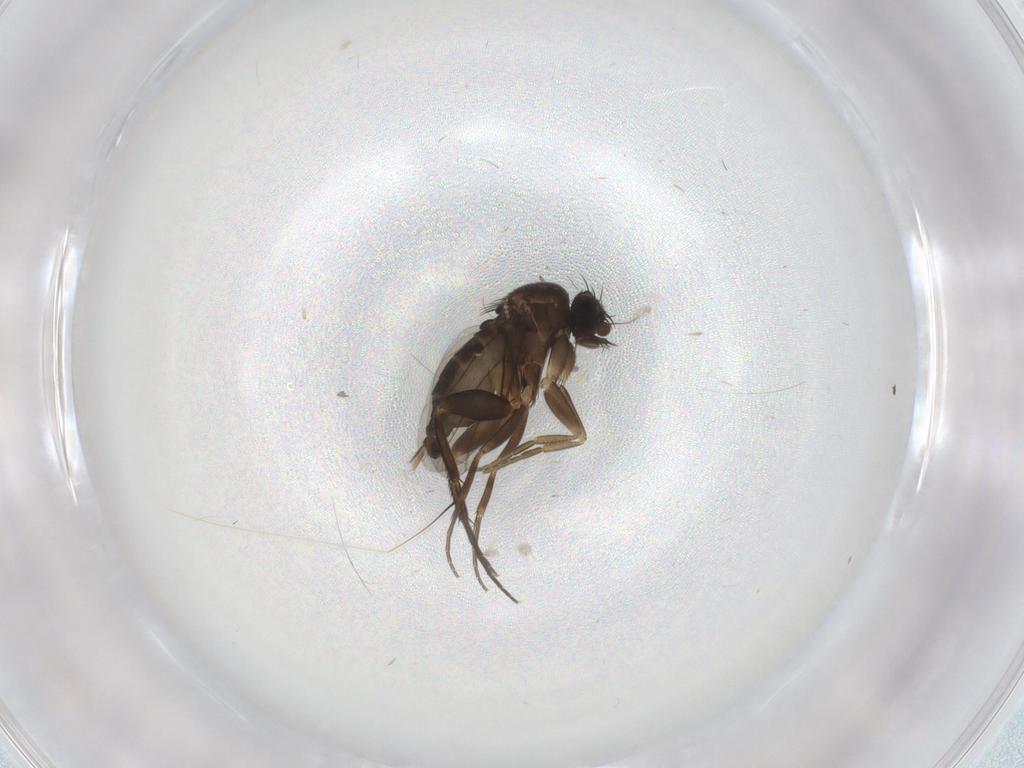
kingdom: Animalia
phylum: Arthropoda
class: Insecta
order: Diptera
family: Phoridae
